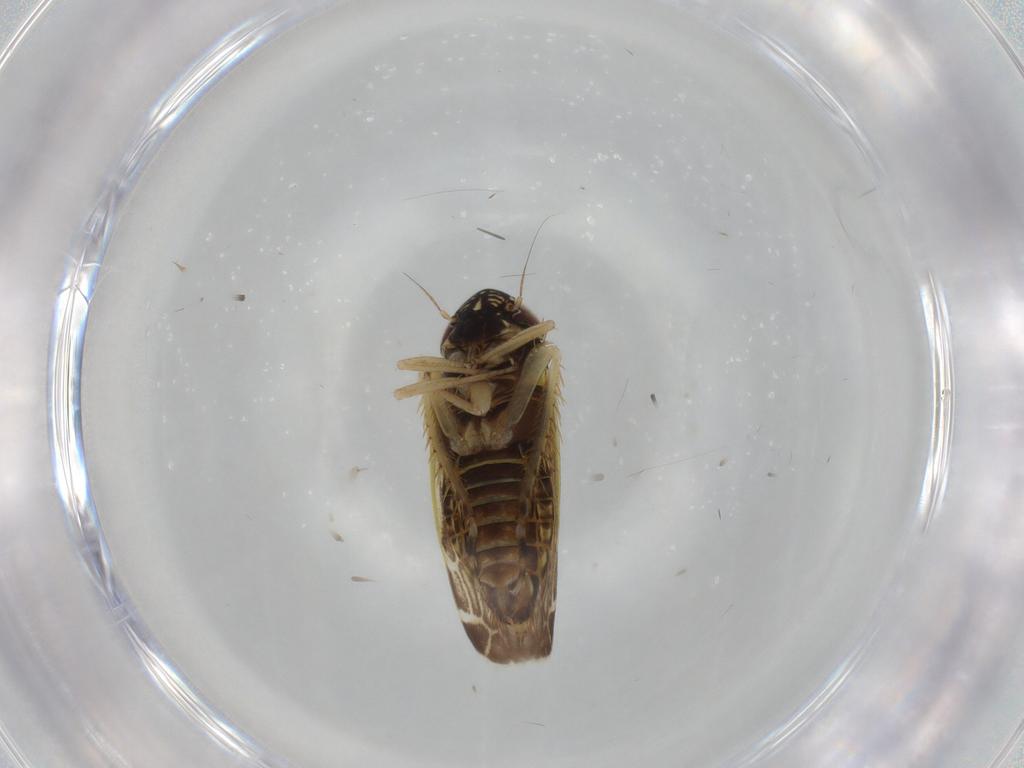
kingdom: Animalia
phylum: Arthropoda
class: Insecta
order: Hemiptera
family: Cicadellidae
